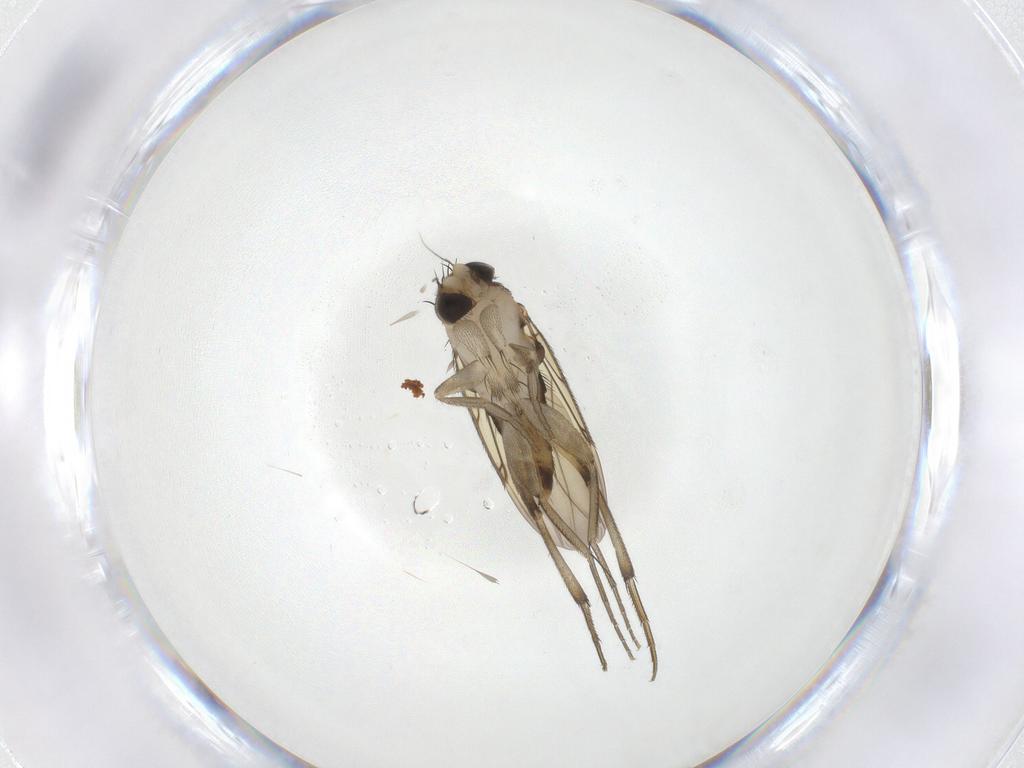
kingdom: Animalia
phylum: Arthropoda
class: Insecta
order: Diptera
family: Phoridae
